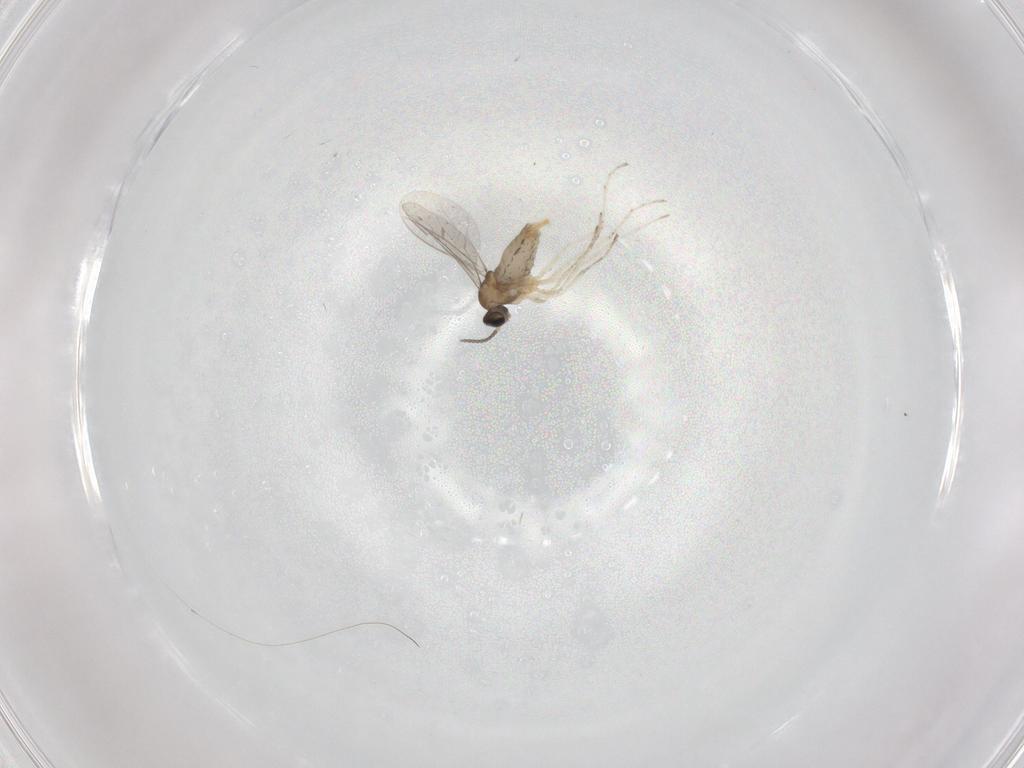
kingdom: Animalia
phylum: Arthropoda
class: Insecta
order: Diptera
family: Cecidomyiidae
